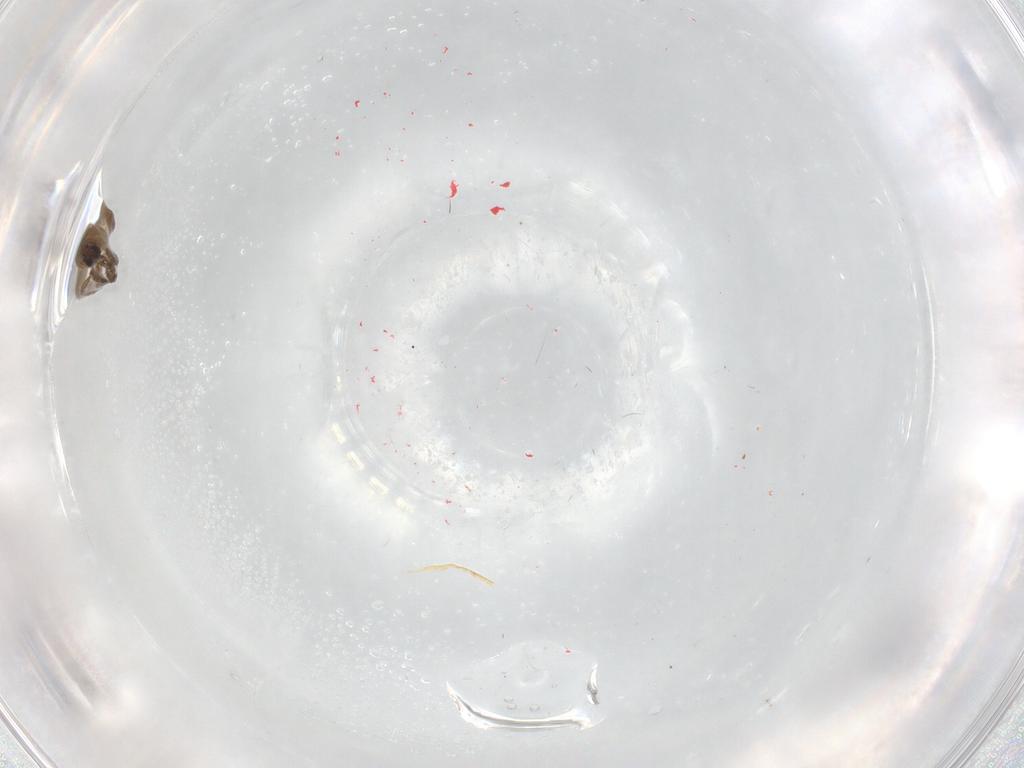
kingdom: Animalia
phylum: Arthropoda
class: Insecta
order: Hemiptera
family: Enicocephalidae
